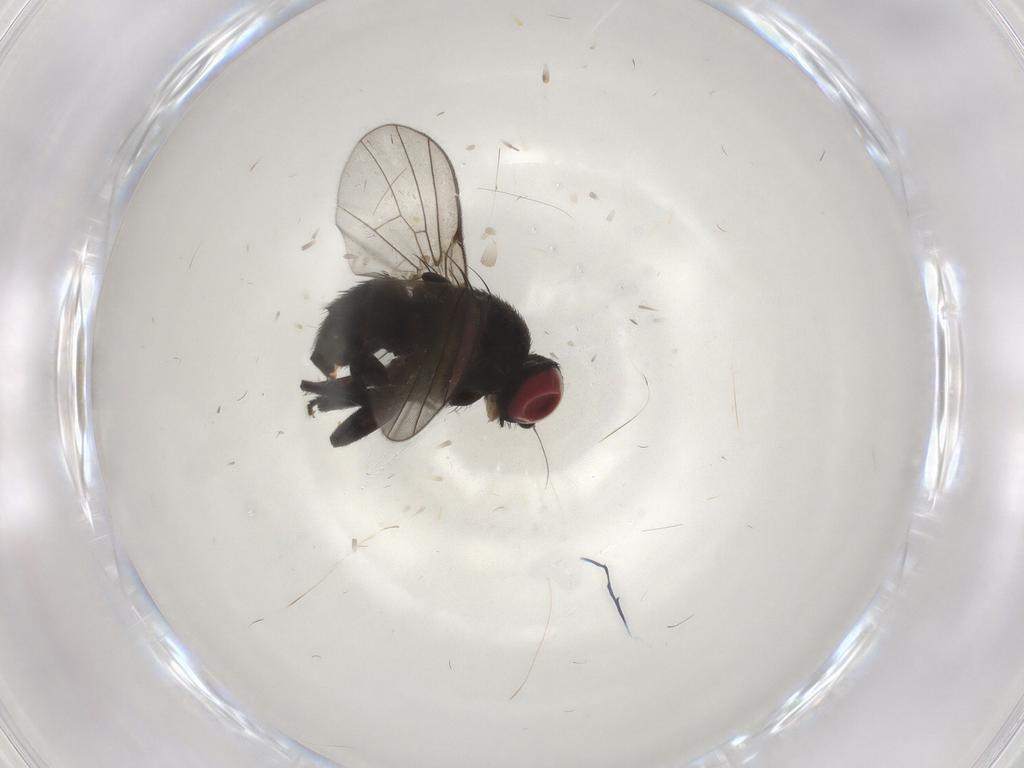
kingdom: Animalia
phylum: Arthropoda
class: Insecta
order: Diptera
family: Agromyzidae
